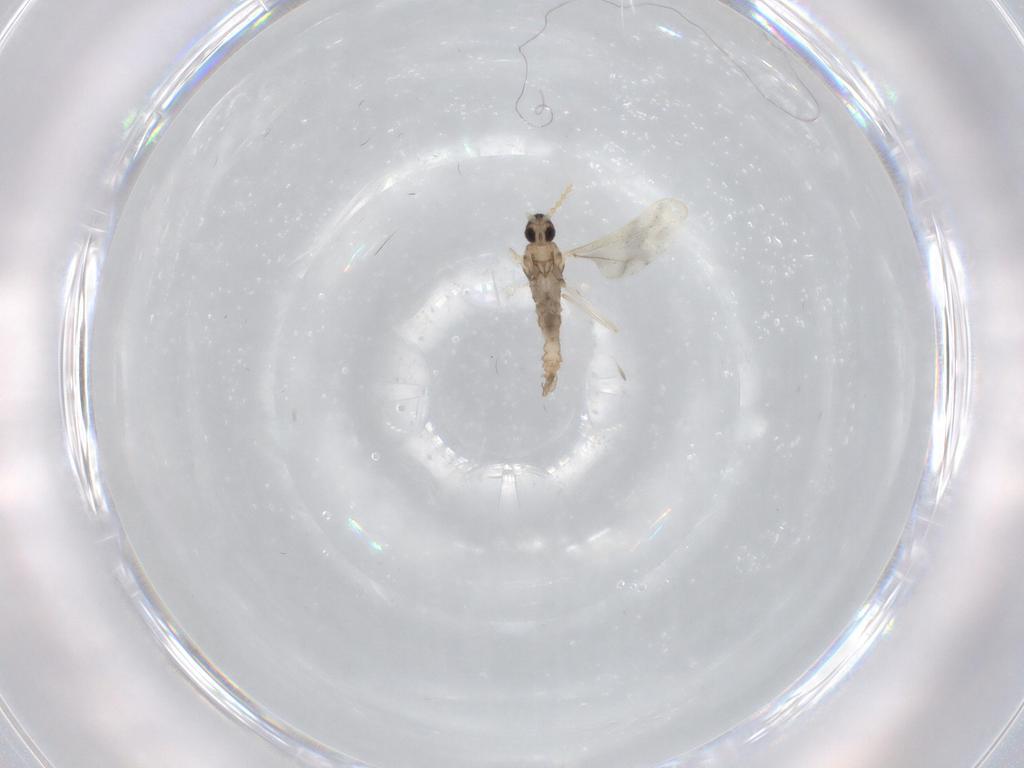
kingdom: Animalia
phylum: Arthropoda
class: Insecta
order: Diptera
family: Cecidomyiidae
